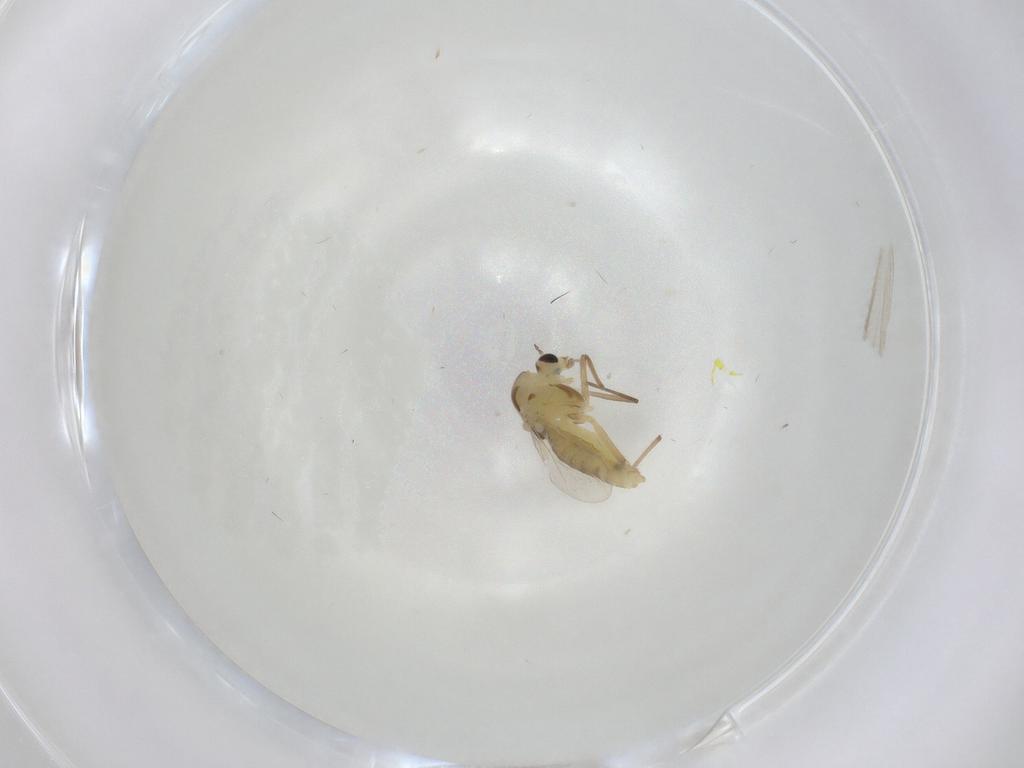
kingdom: Animalia
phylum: Arthropoda
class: Insecta
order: Diptera
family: Chironomidae
